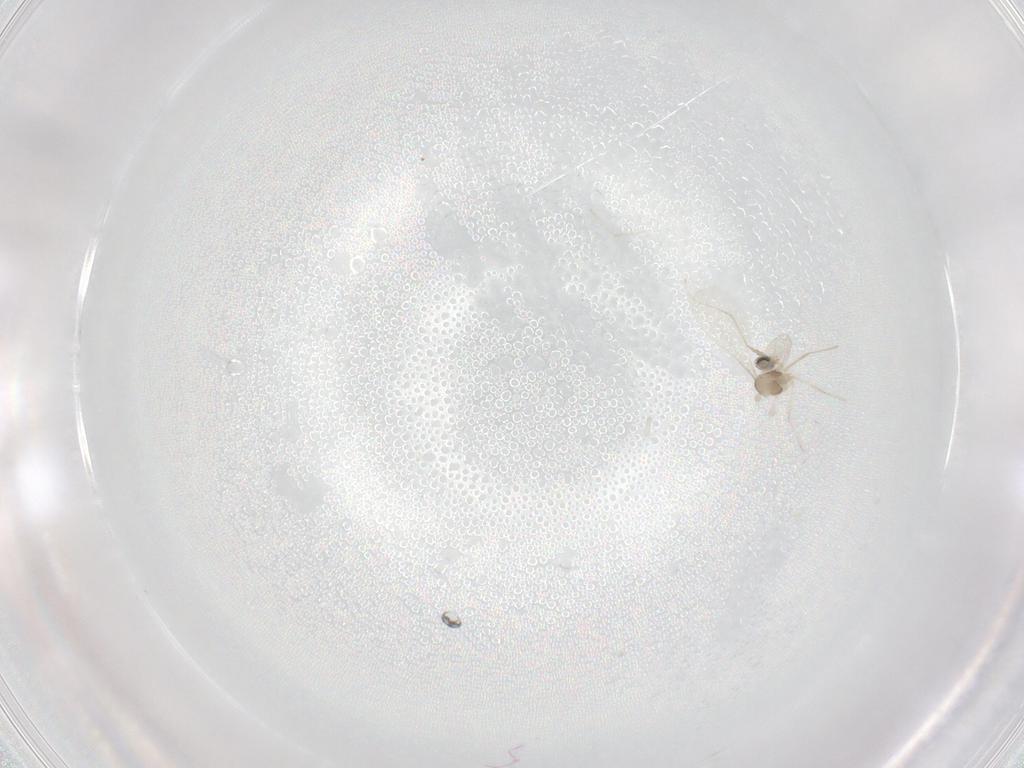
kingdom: Animalia
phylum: Arthropoda
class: Insecta
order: Diptera
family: Cecidomyiidae
